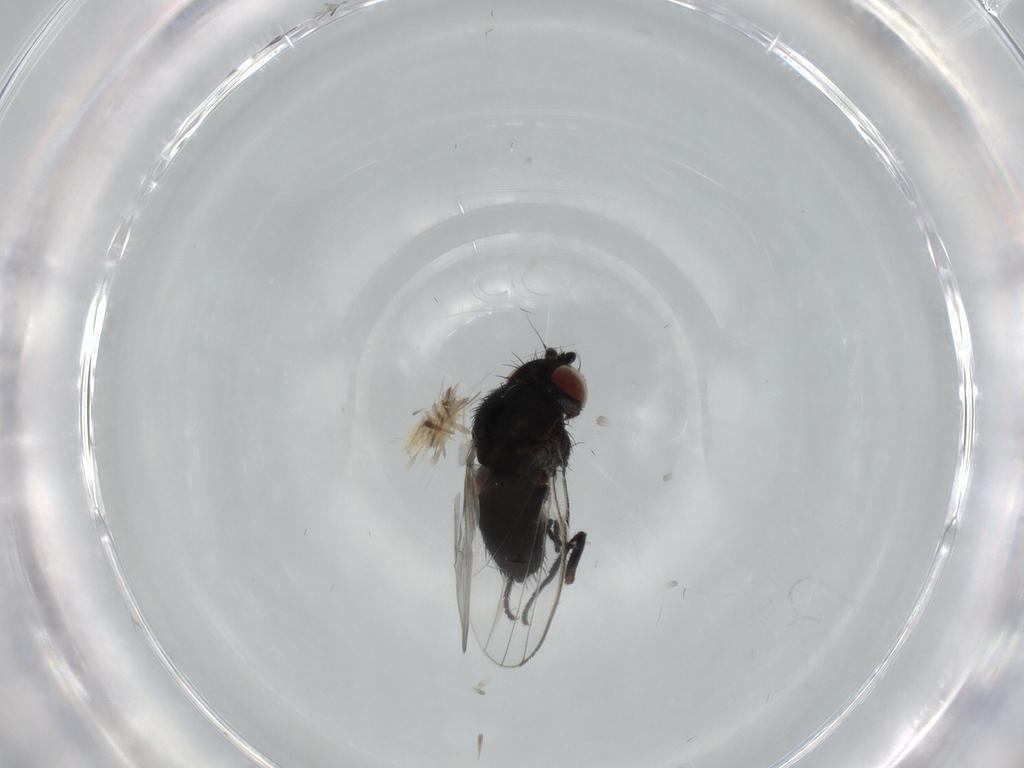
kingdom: Animalia
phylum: Arthropoda
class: Insecta
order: Diptera
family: Milichiidae
